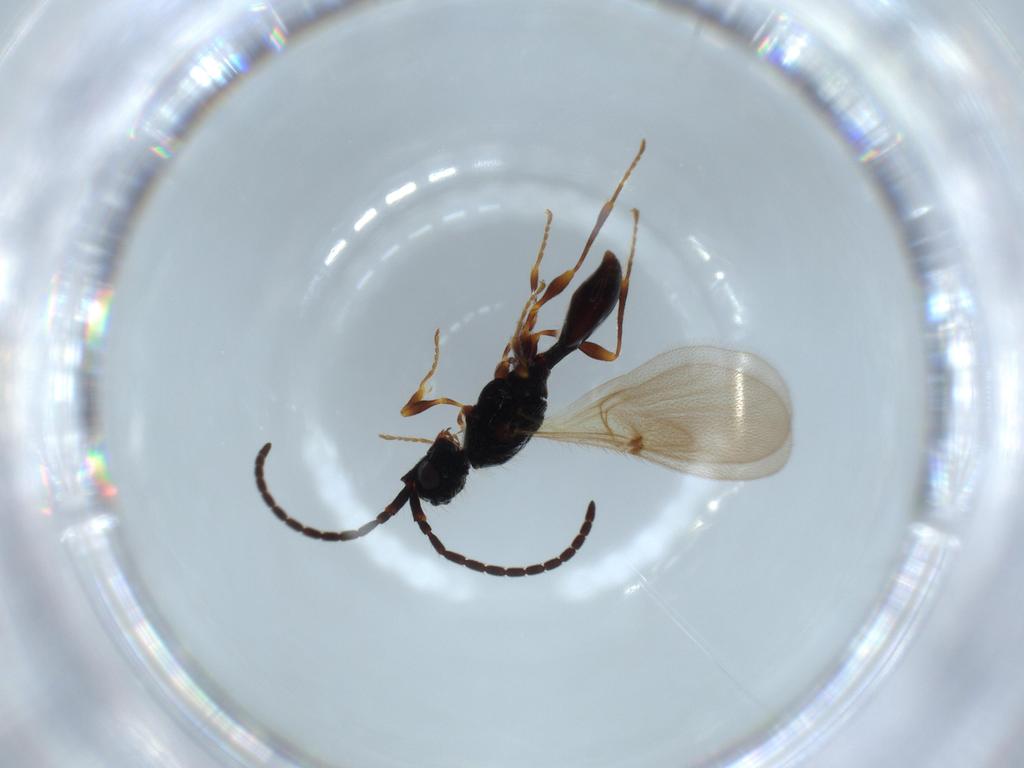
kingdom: Animalia
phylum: Arthropoda
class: Insecta
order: Hymenoptera
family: Diapriidae
